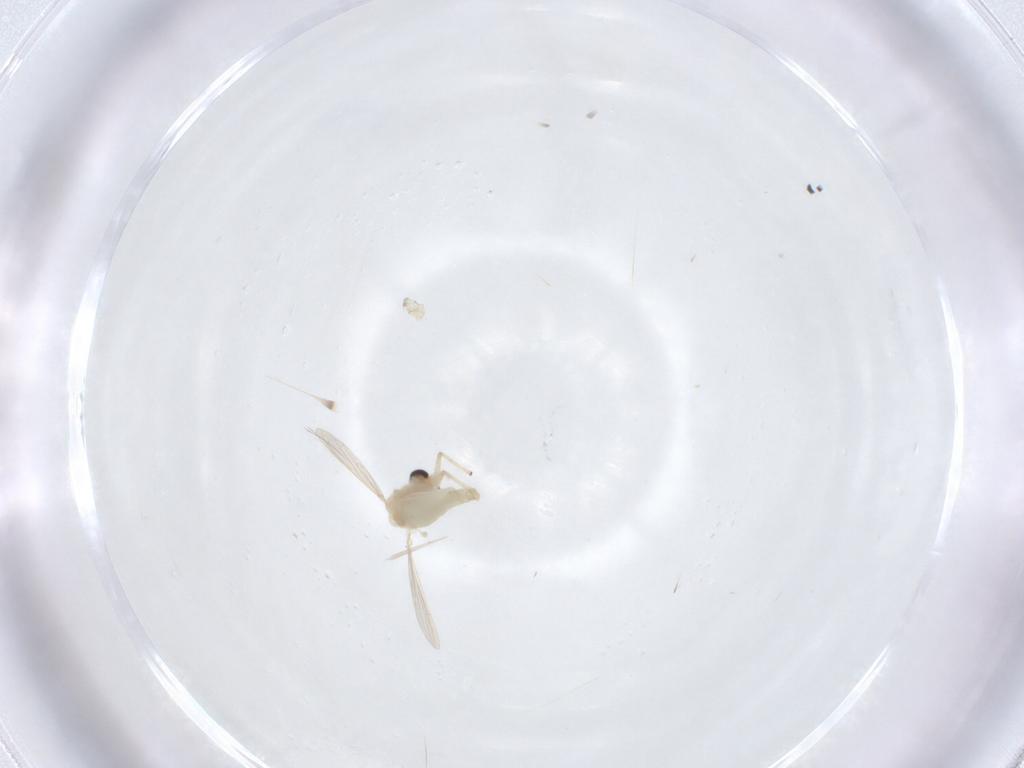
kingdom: Animalia
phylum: Arthropoda
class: Insecta
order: Diptera
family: Chironomidae
